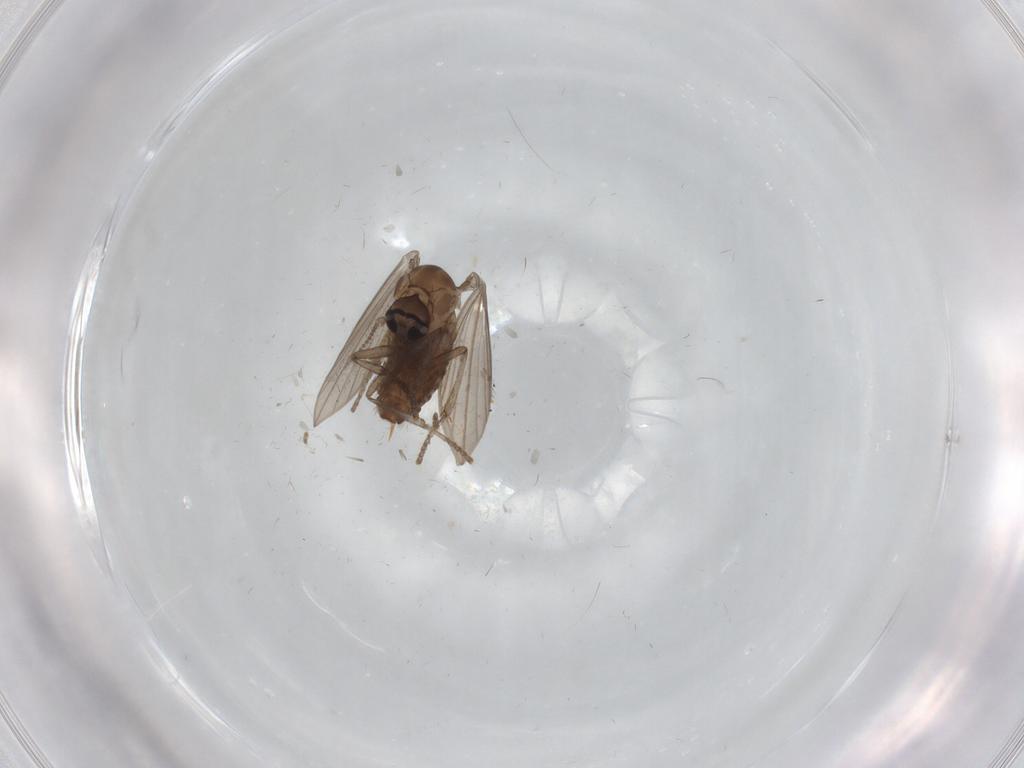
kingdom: Animalia
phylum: Arthropoda
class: Insecta
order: Diptera
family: Psychodidae
